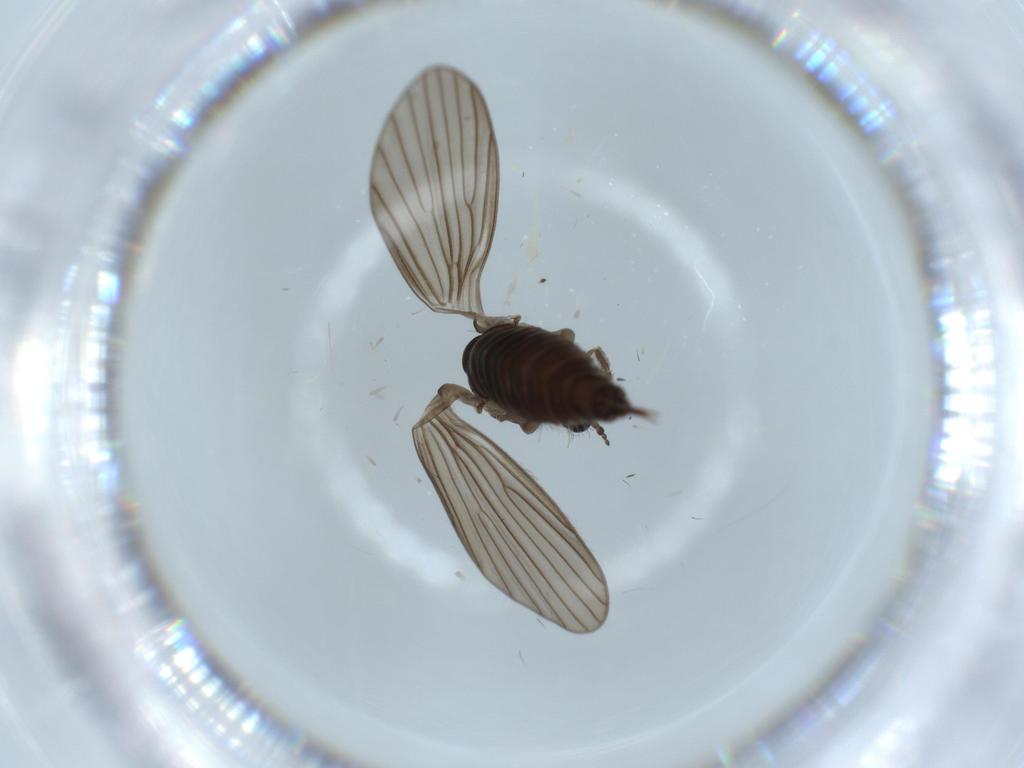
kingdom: Animalia
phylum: Arthropoda
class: Insecta
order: Diptera
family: Psychodidae
